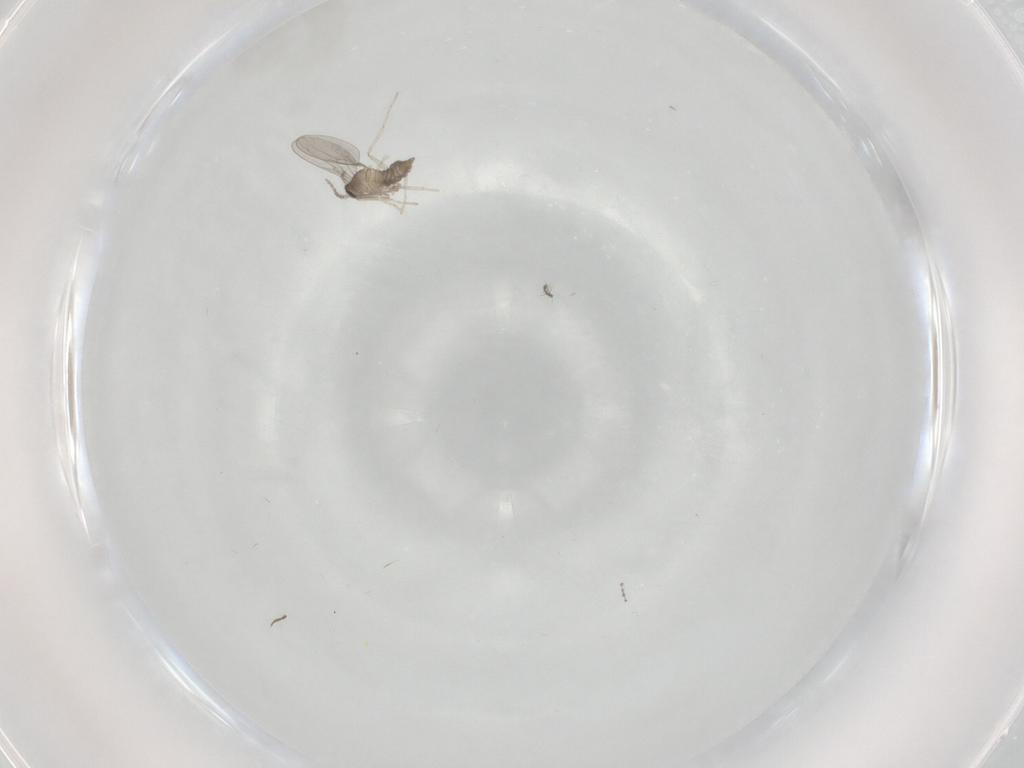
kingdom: Animalia
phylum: Arthropoda
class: Insecta
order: Diptera
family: Chironomidae
